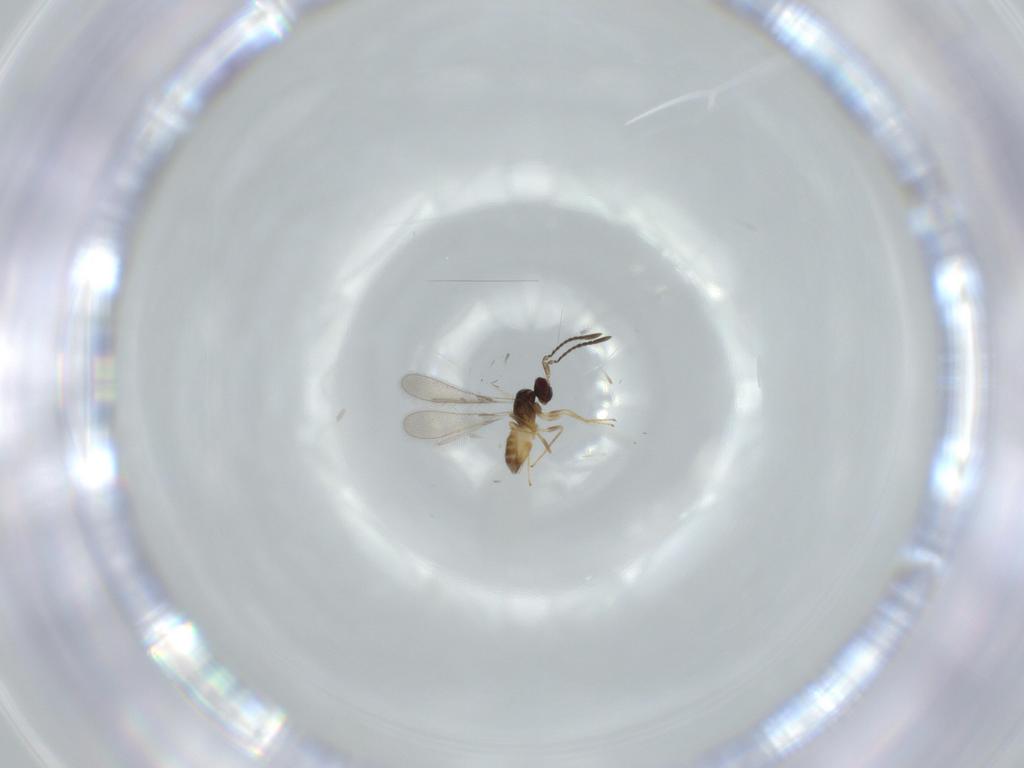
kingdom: Animalia
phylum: Arthropoda
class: Insecta
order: Hymenoptera
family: Mymaridae
